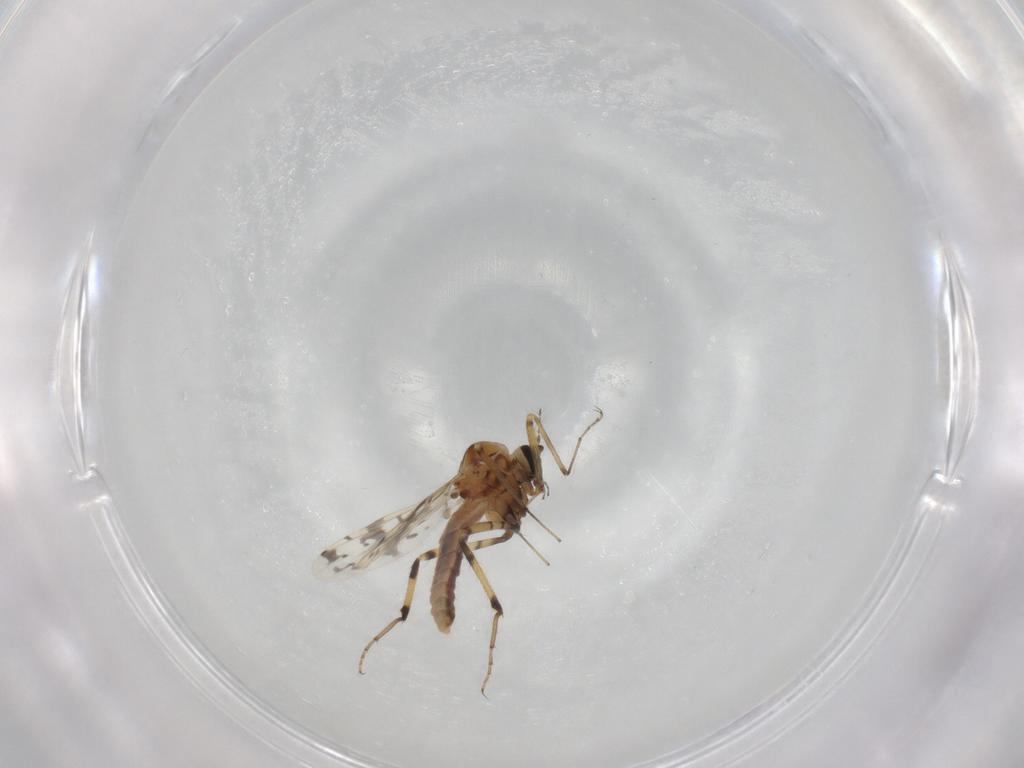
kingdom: Animalia
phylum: Arthropoda
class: Insecta
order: Diptera
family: Ceratopogonidae
